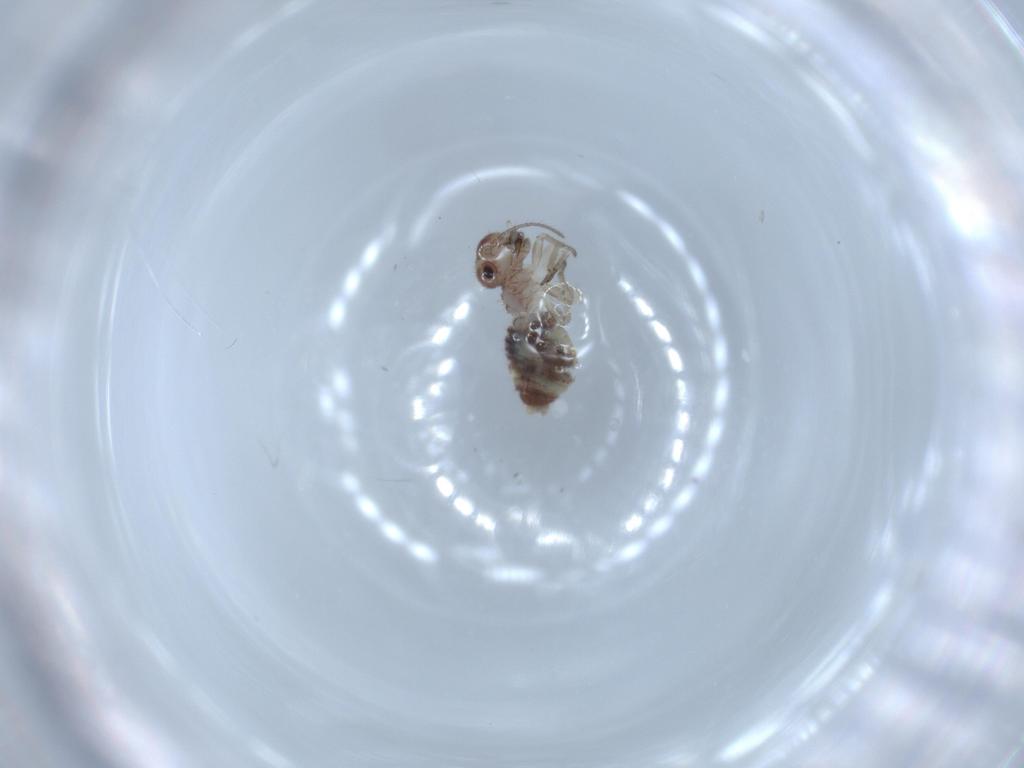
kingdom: Animalia
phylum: Arthropoda
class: Insecta
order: Psocodea
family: Psocidae
